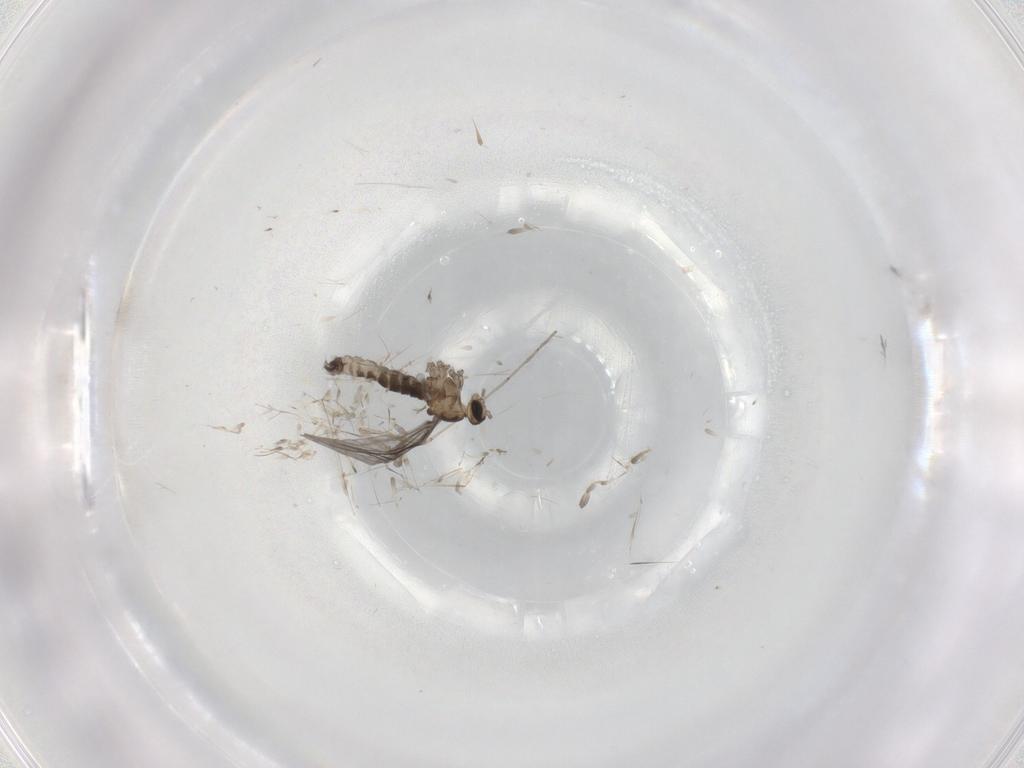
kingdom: Animalia
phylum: Arthropoda
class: Insecta
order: Diptera
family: Cecidomyiidae
